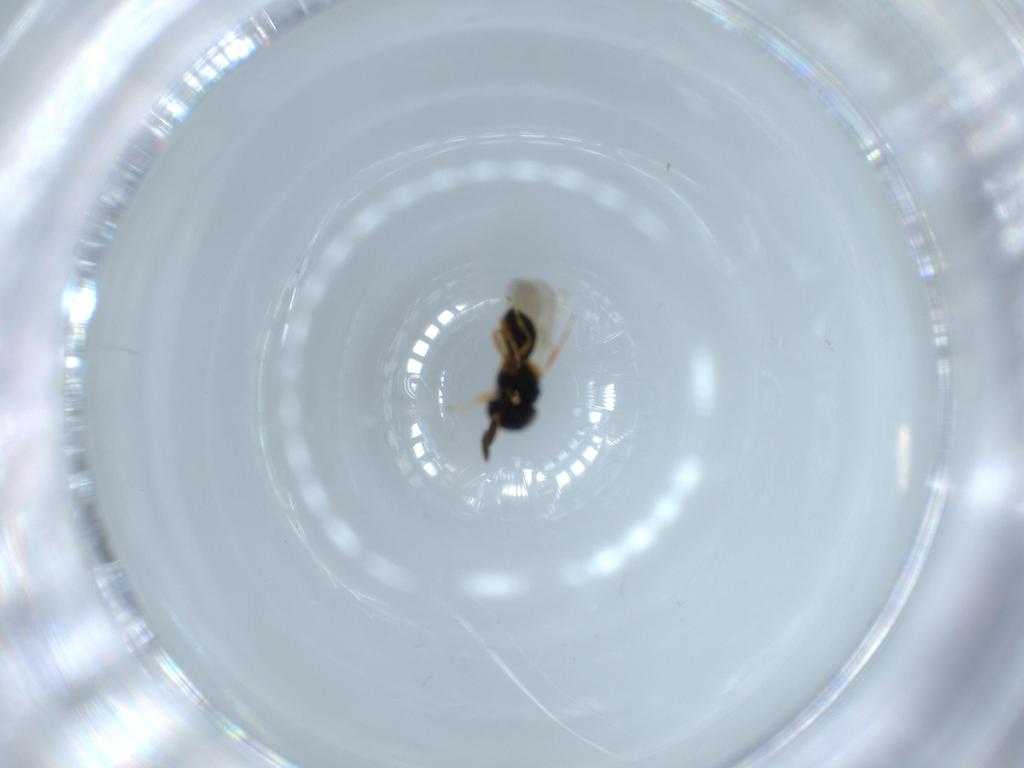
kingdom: Animalia
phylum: Arthropoda
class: Insecta
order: Hymenoptera
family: Scelionidae
